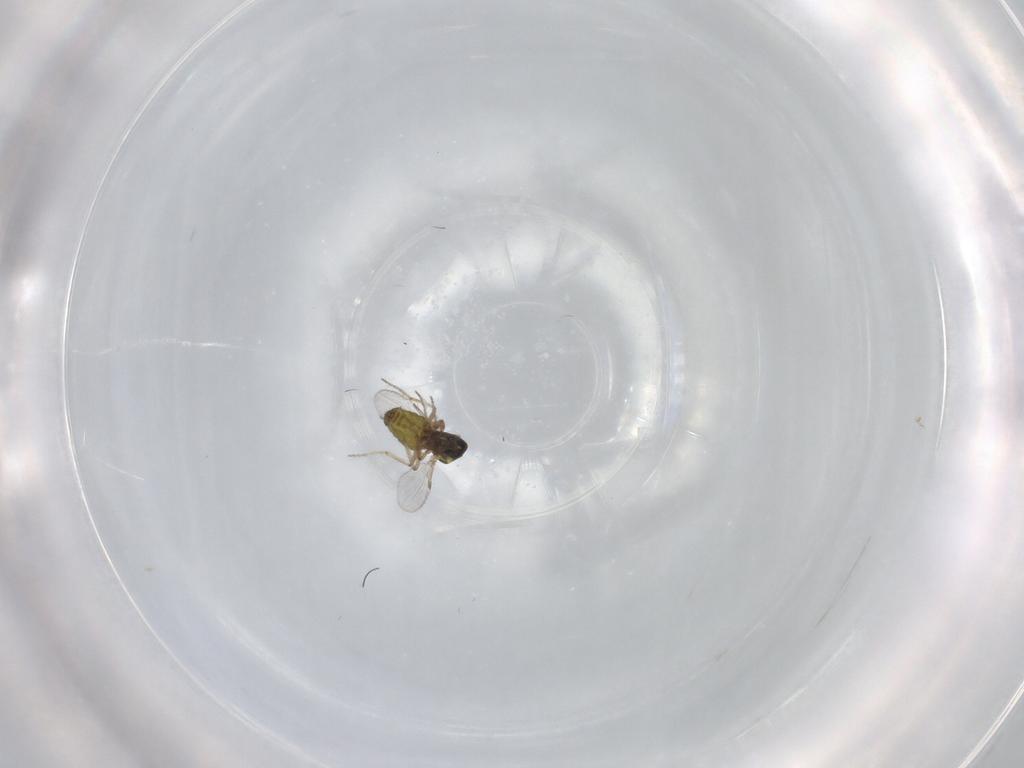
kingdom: Animalia
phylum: Arthropoda
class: Insecta
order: Diptera
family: Ceratopogonidae
